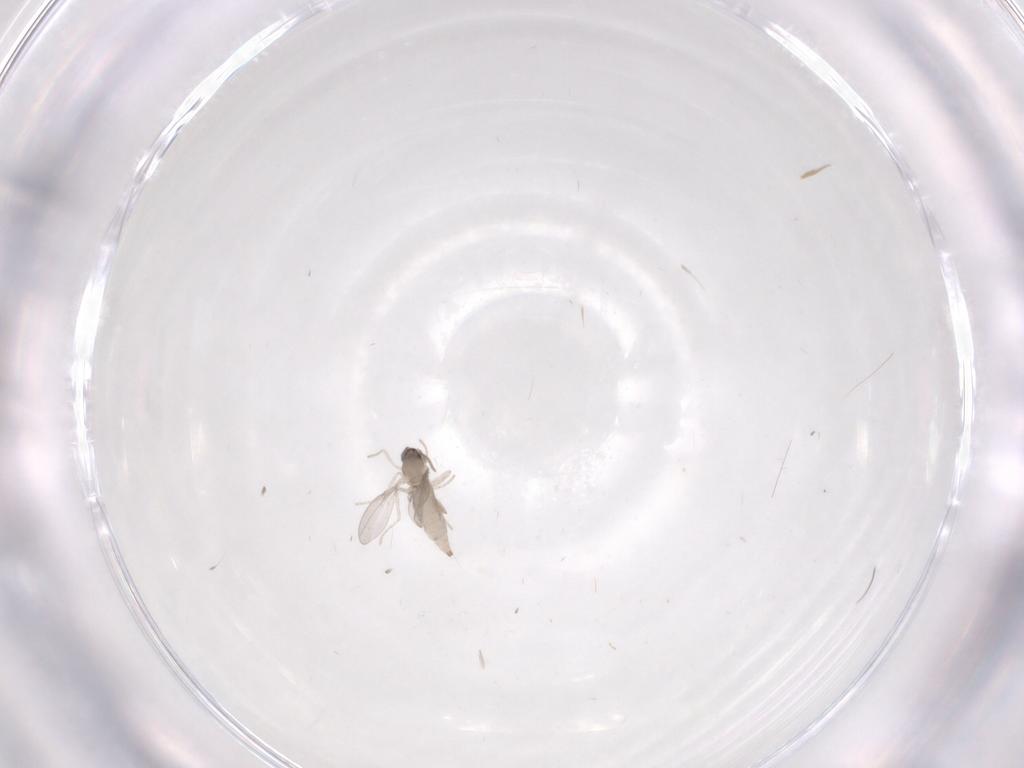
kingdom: Animalia
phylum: Arthropoda
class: Insecta
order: Diptera
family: Cecidomyiidae
